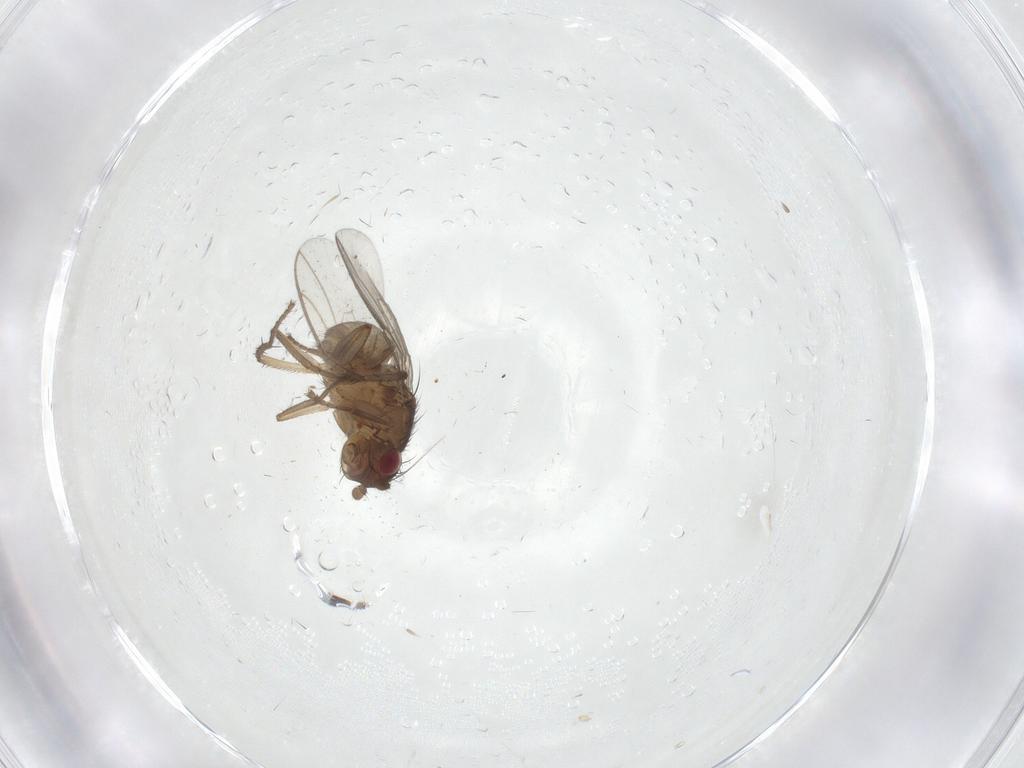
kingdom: Animalia
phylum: Arthropoda
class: Insecta
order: Diptera
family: Sphaeroceridae
